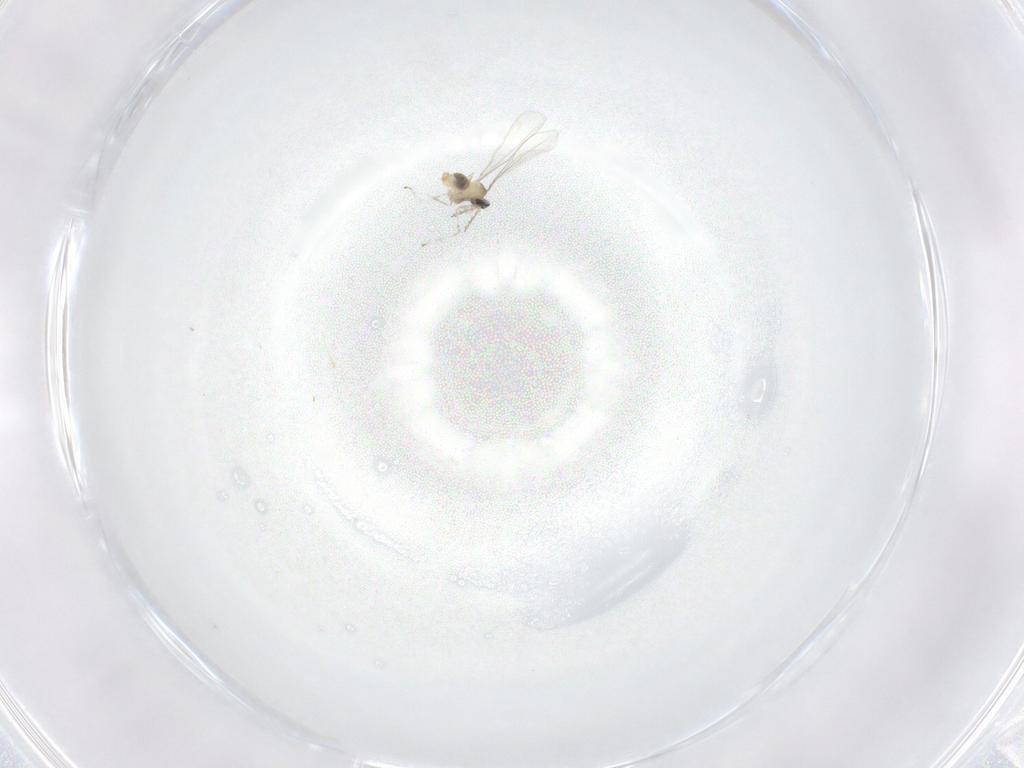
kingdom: Animalia
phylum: Arthropoda
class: Insecta
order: Diptera
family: Cecidomyiidae
